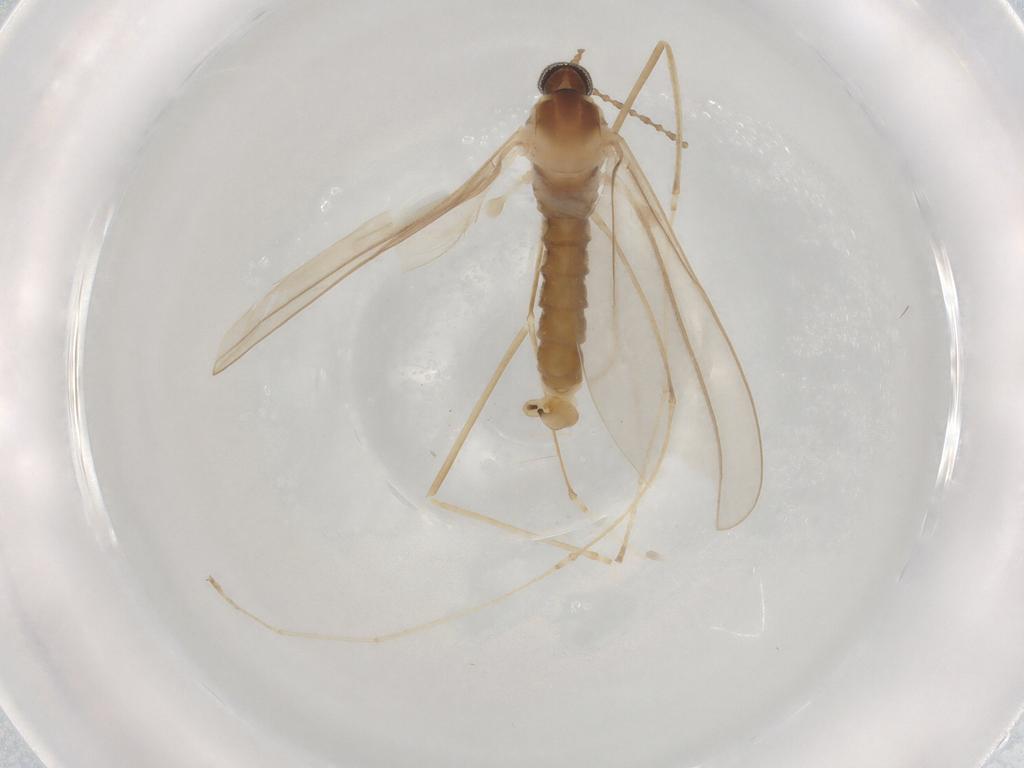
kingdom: Animalia
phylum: Arthropoda
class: Insecta
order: Diptera
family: Cecidomyiidae
